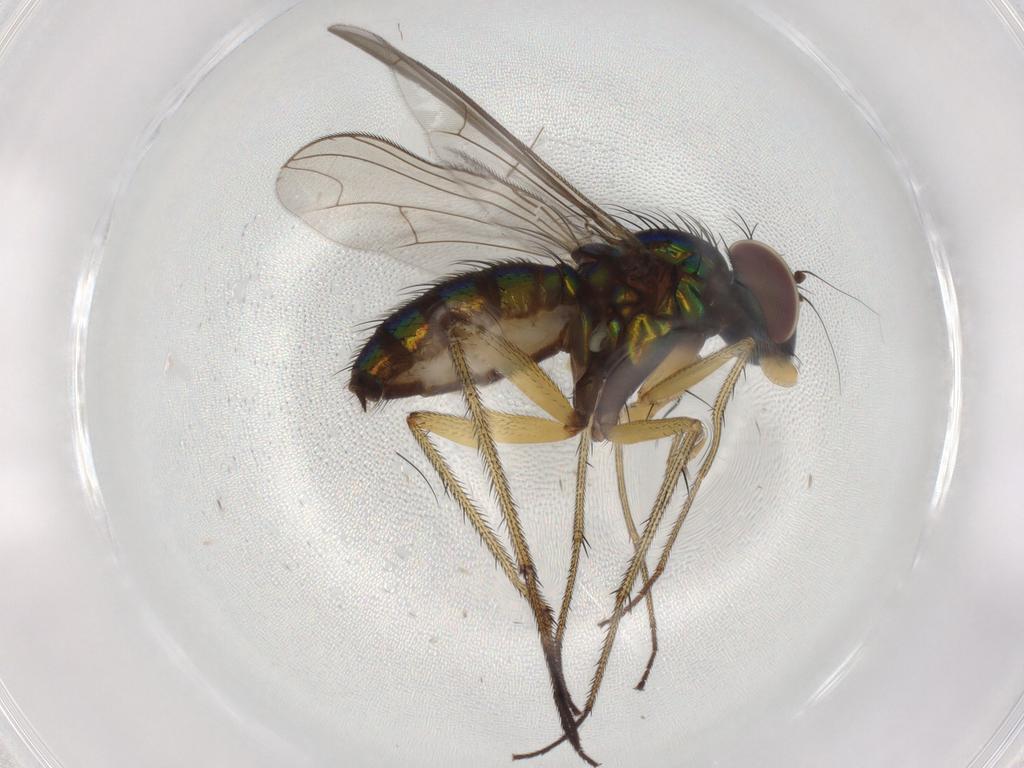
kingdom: Animalia
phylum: Arthropoda
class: Insecta
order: Diptera
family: Dolichopodidae
